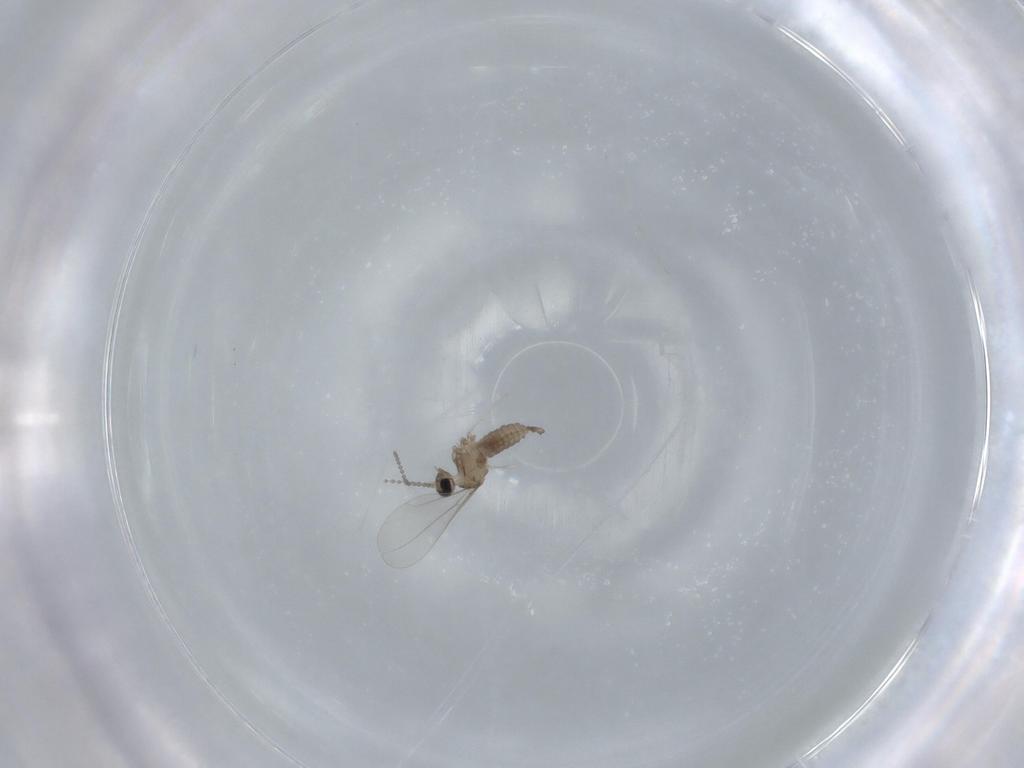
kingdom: Animalia
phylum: Arthropoda
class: Insecta
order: Diptera
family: Cecidomyiidae
